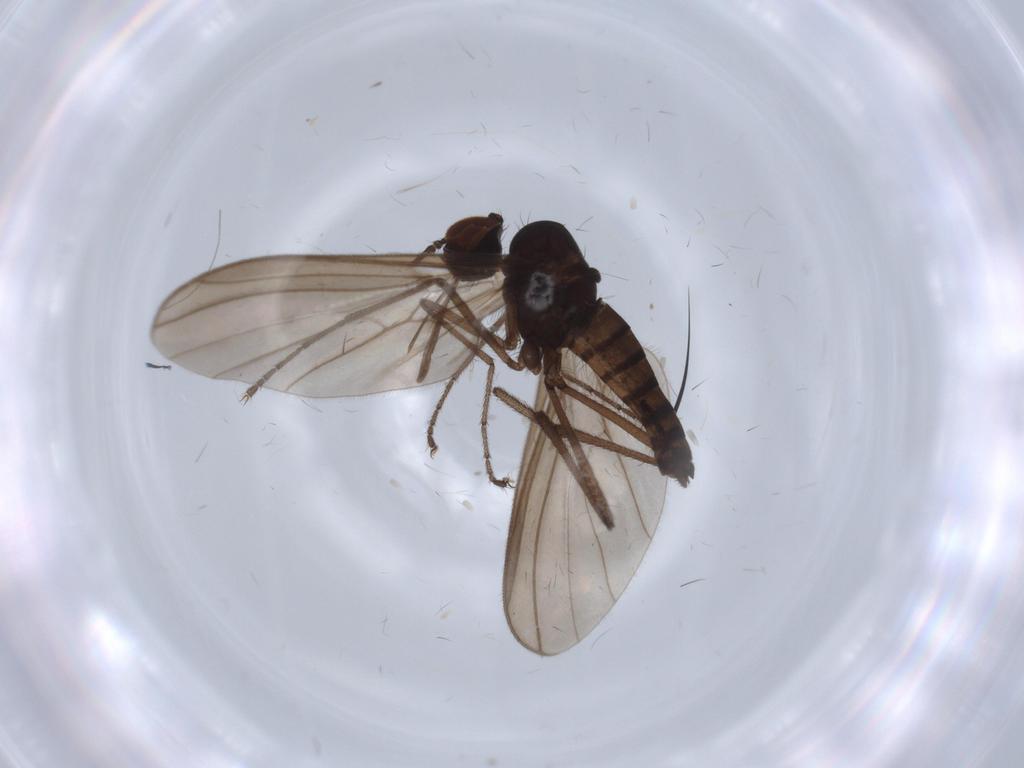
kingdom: Animalia
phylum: Arthropoda
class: Insecta
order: Diptera
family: Empididae
